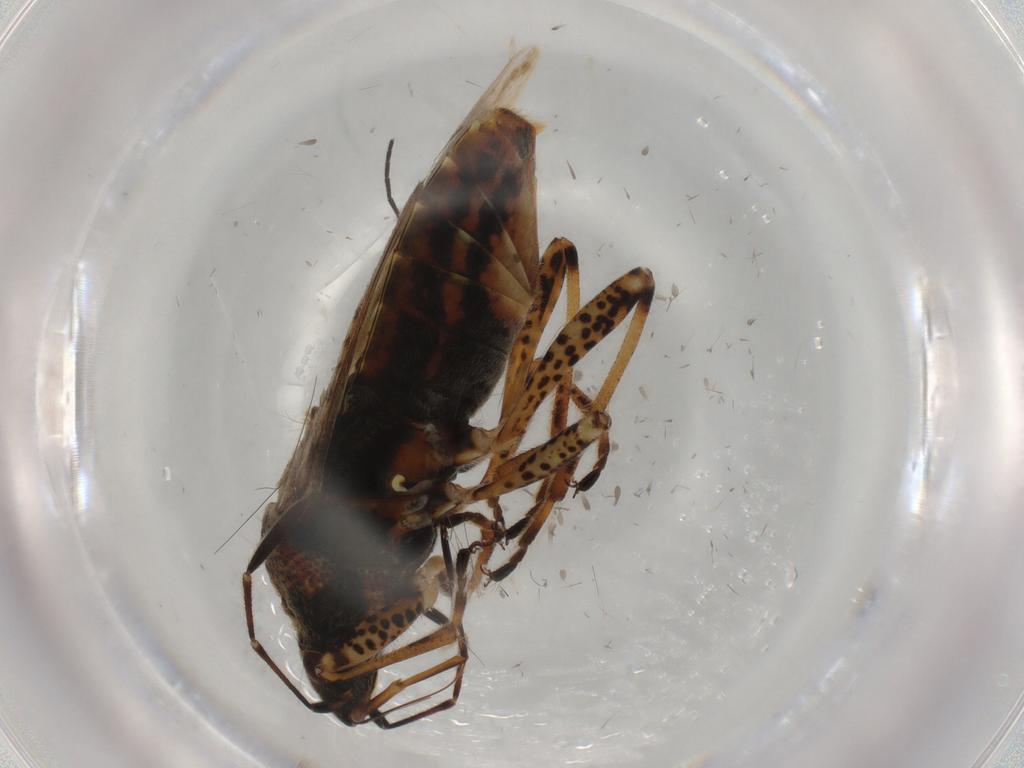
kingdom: Animalia
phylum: Arthropoda
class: Insecta
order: Hemiptera
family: Lygaeidae
